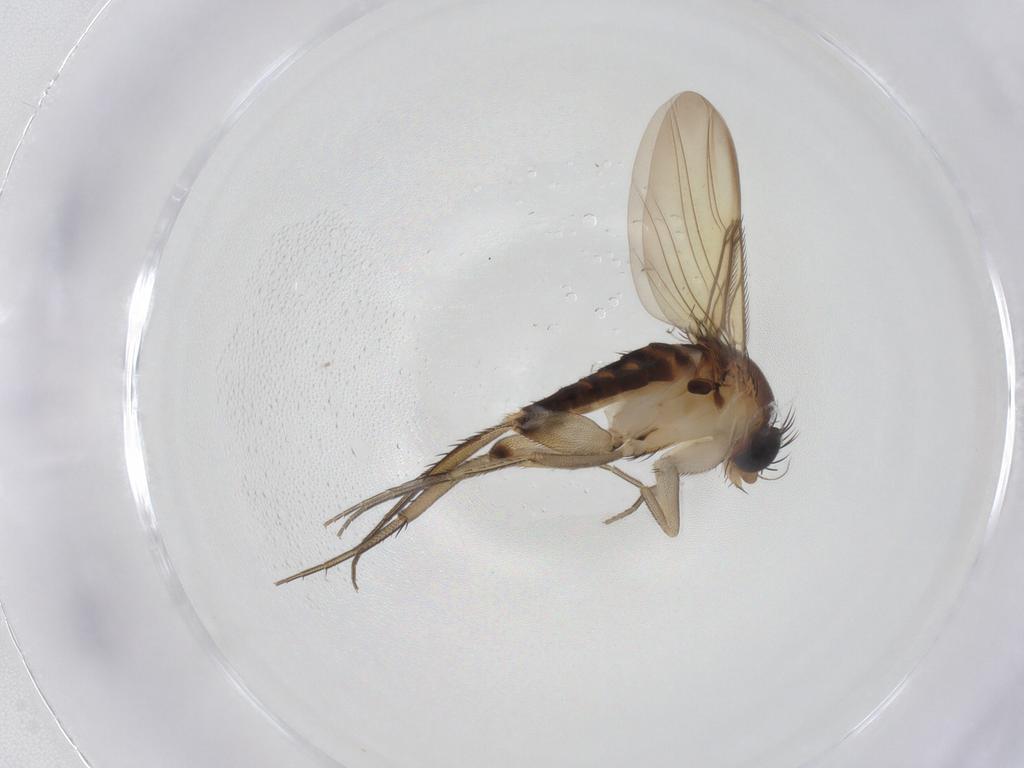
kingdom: Animalia
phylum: Arthropoda
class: Insecta
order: Diptera
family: Phoridae
